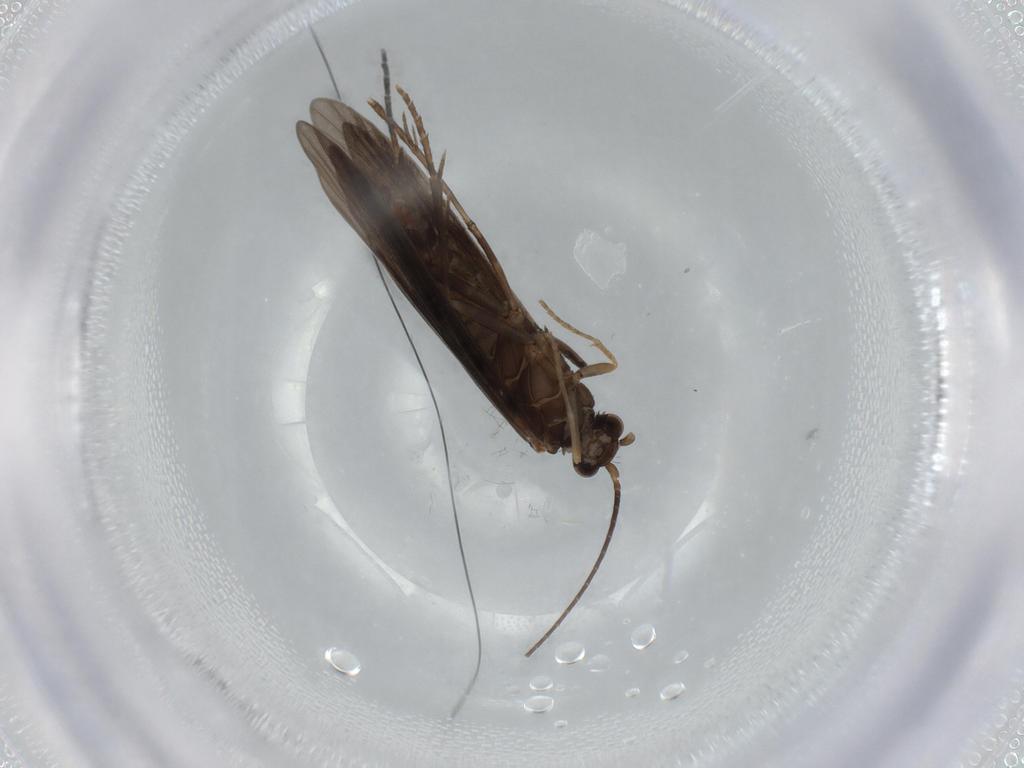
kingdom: Animalia
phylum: Arthropoda
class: Insecta
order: Trichoptera
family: Xiphocentronidae
